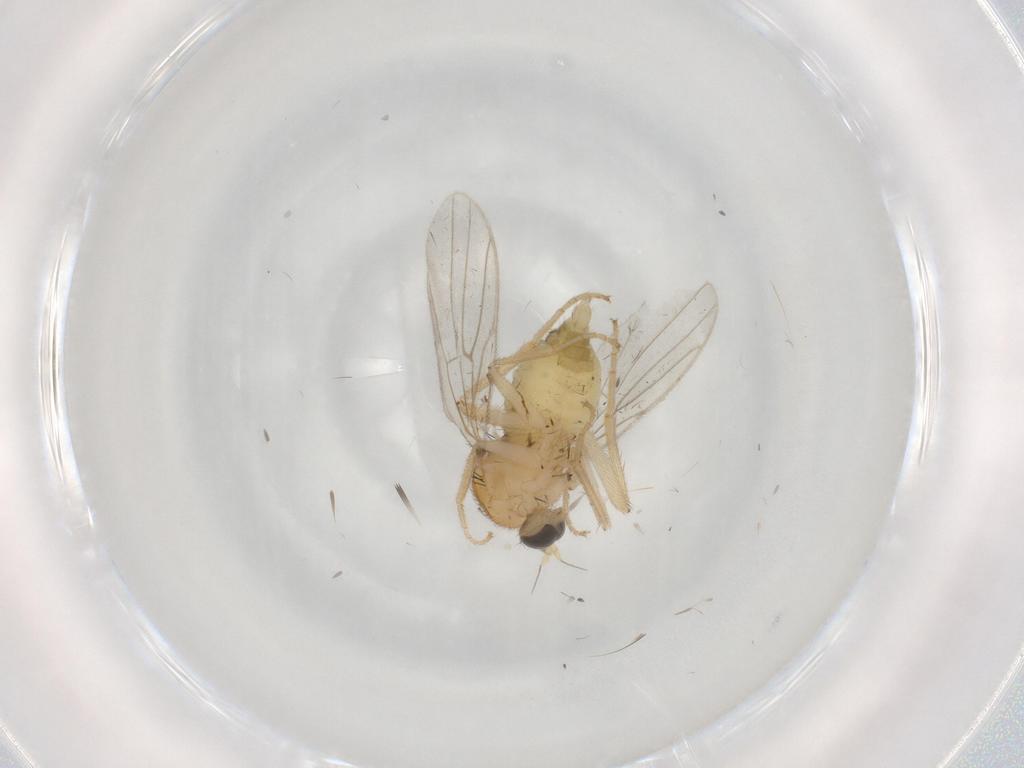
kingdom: Animalia
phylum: Arthropoda
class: Insecta
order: Diptera
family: Hybotidae
